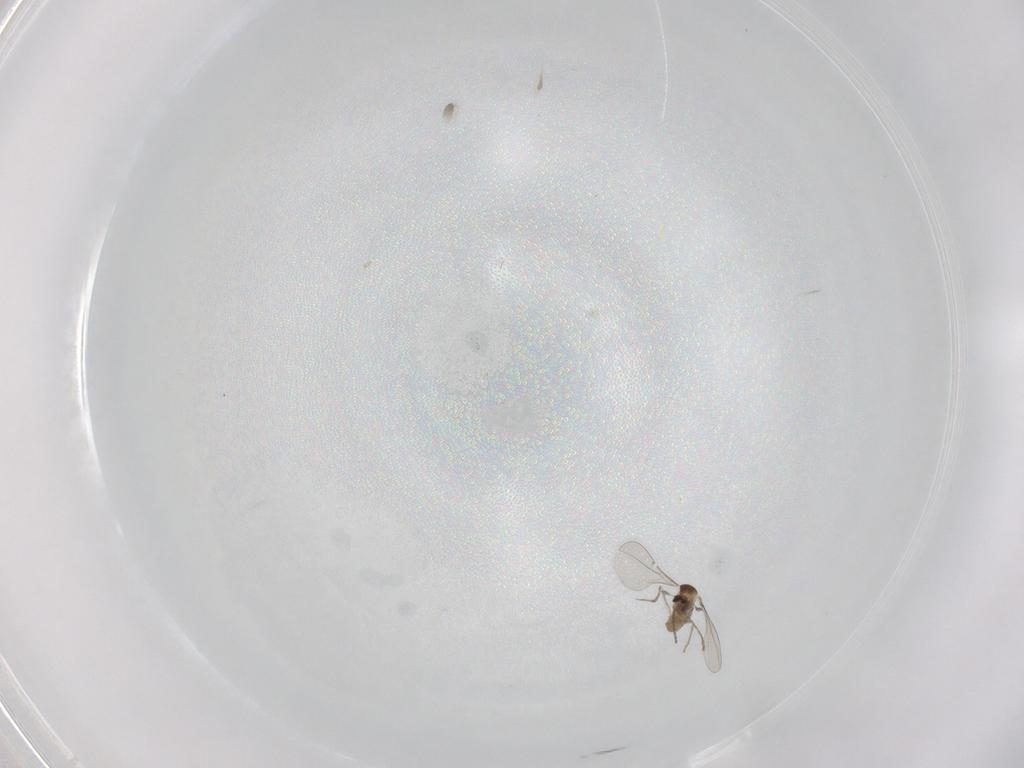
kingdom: Animalia
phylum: Arthropoda
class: Insecta
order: Diptera
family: Cecidomyiidae
